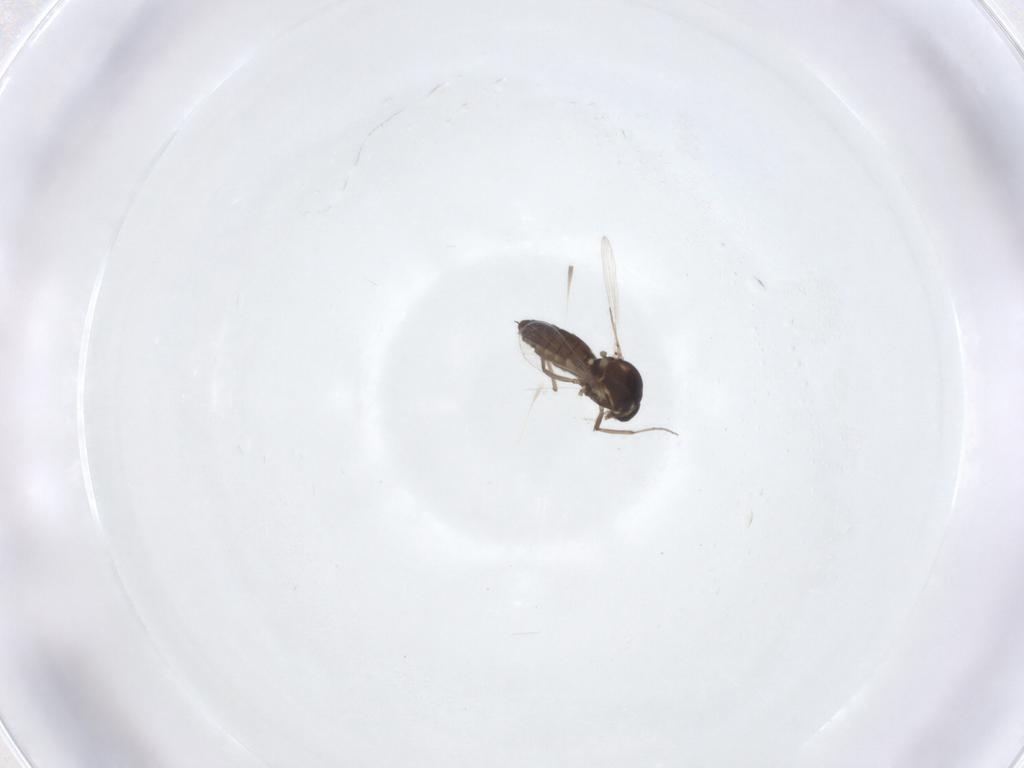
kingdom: Animalia
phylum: Arthropoda
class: Insecta
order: Diptera
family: Ceratopogonidae
